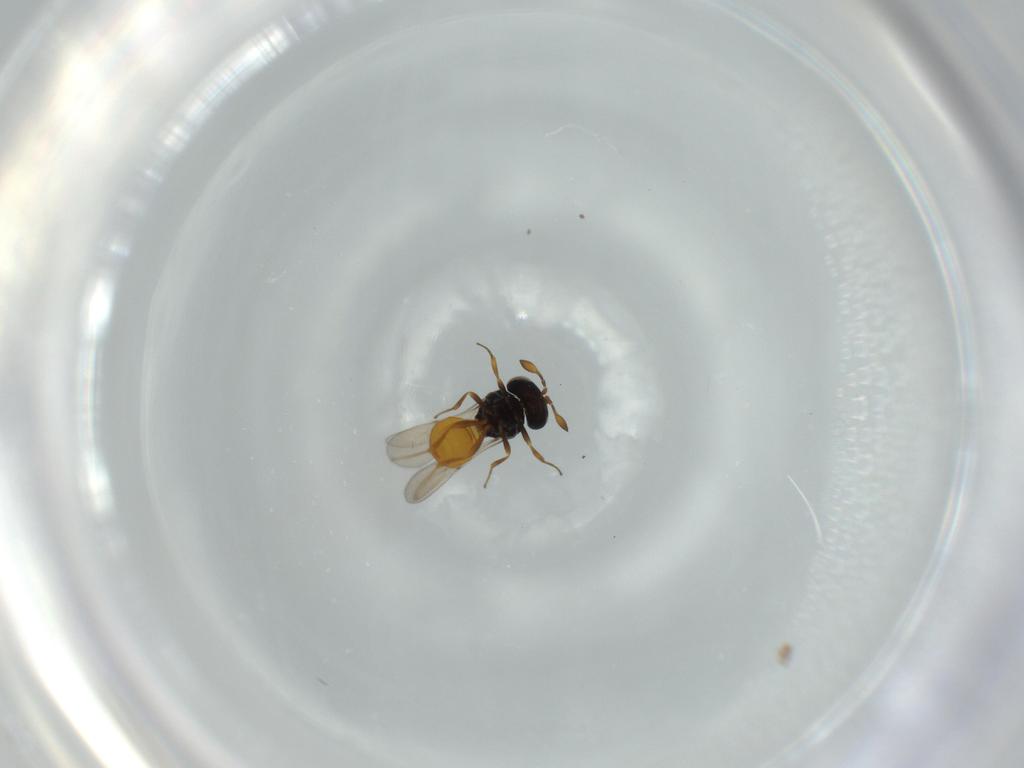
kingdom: Animalia
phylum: Arthropoda
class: Insecta
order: Hymenoptera
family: Scelionidae
